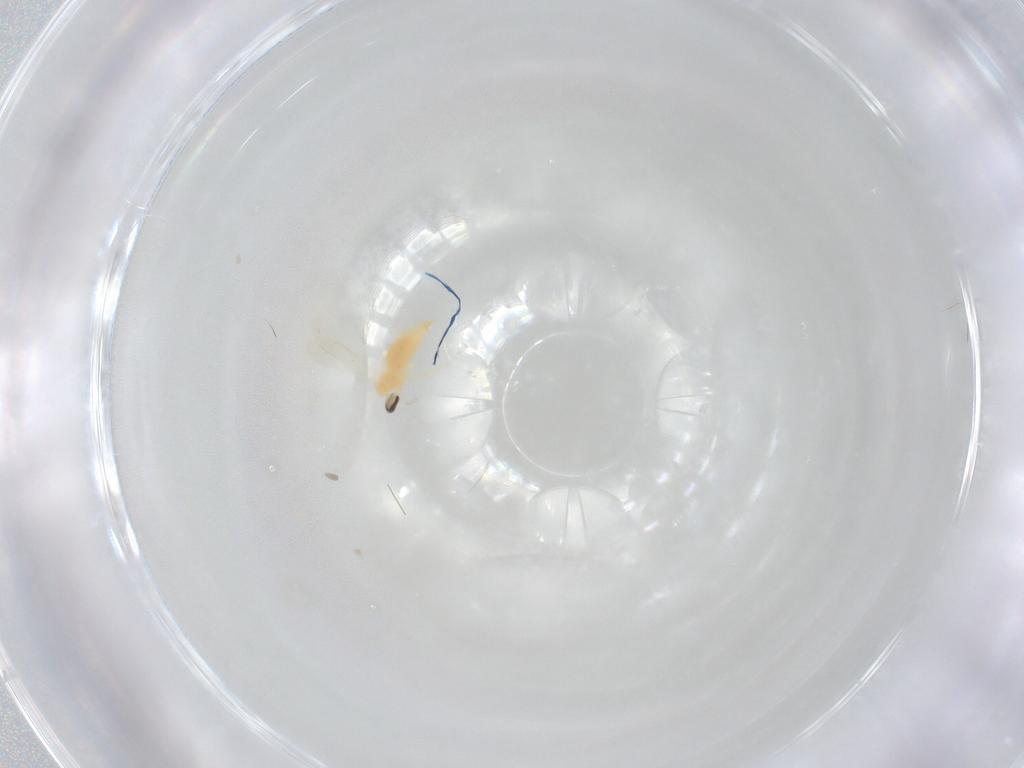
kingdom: Animalia
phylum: Arthropoda
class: Insecta
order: Diptera
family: Cecidomyiidae
